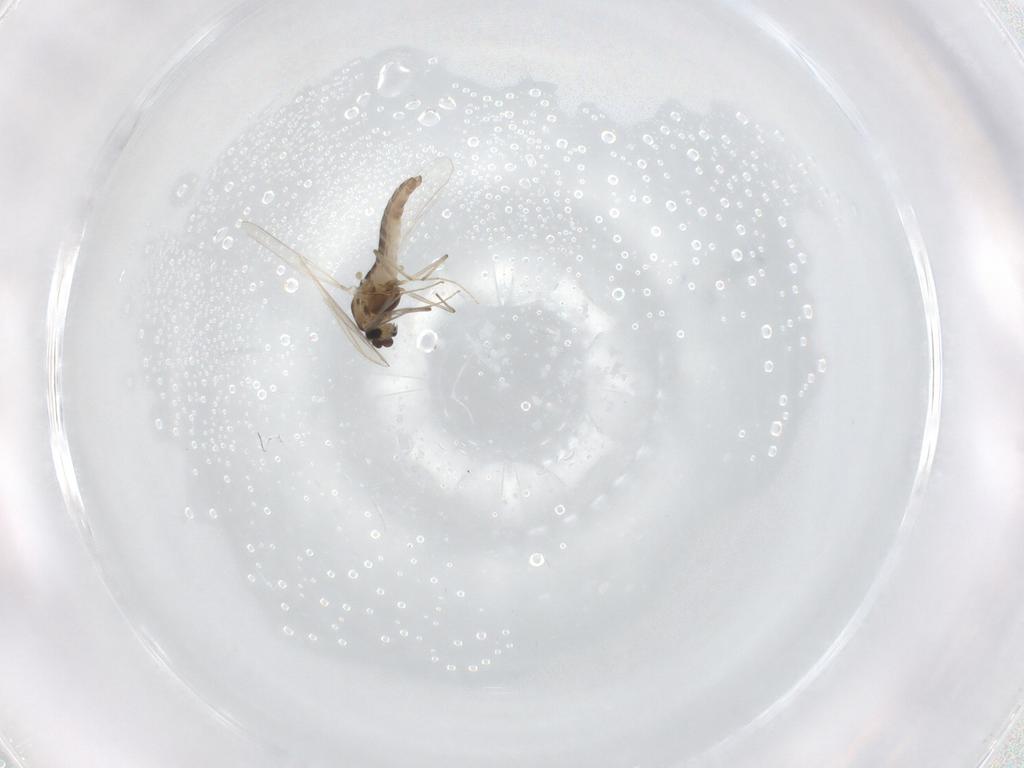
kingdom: Animalia
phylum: Arthropoda
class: Insecta
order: Diptera
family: Chironomidae
